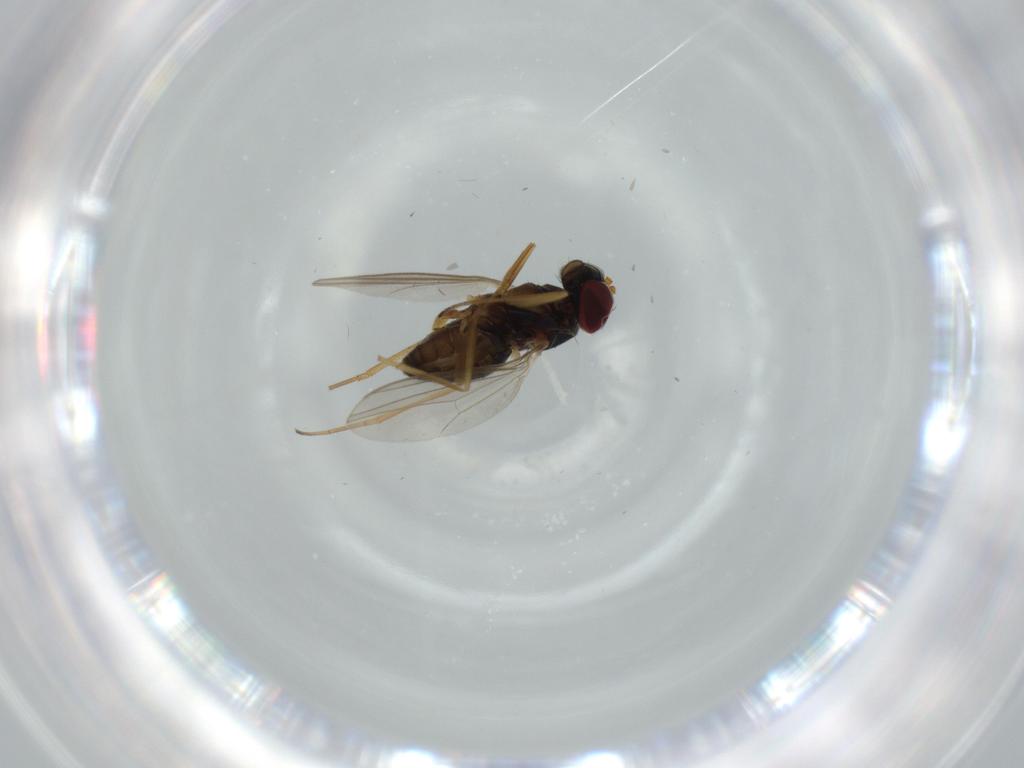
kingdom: Animalia
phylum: Arthropoda
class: Insecta
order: Diptera
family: Dolichopodidae
